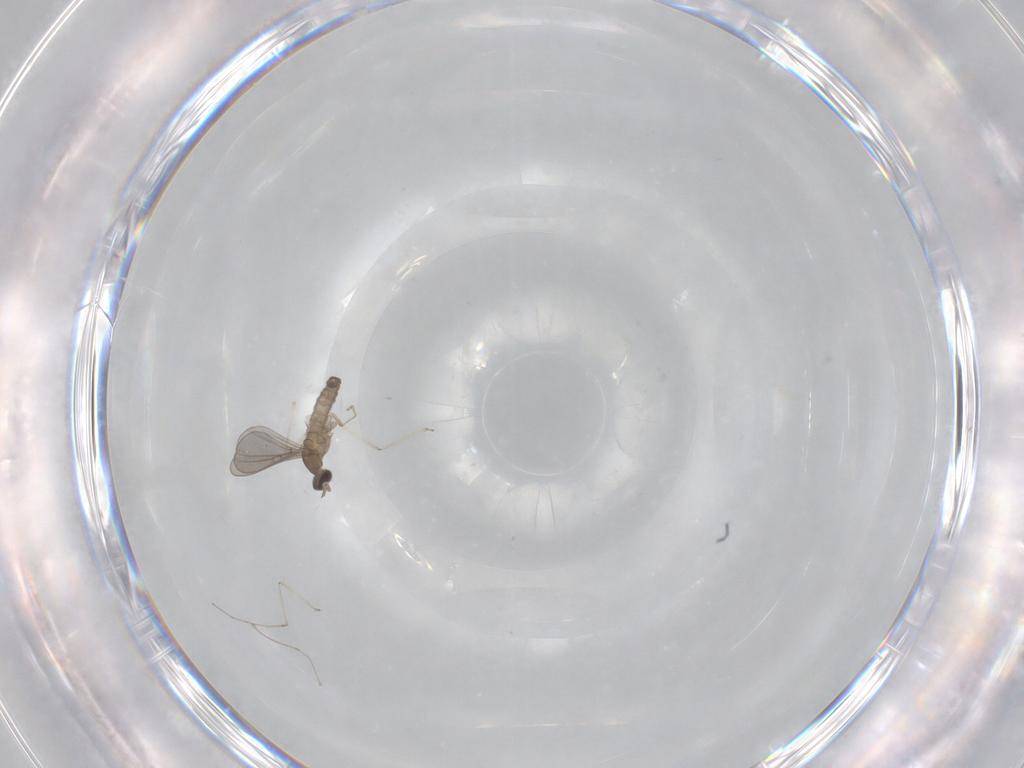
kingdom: Animalia
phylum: Arthropoda
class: Insecta
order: Diptera
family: Cecidomyiidae
